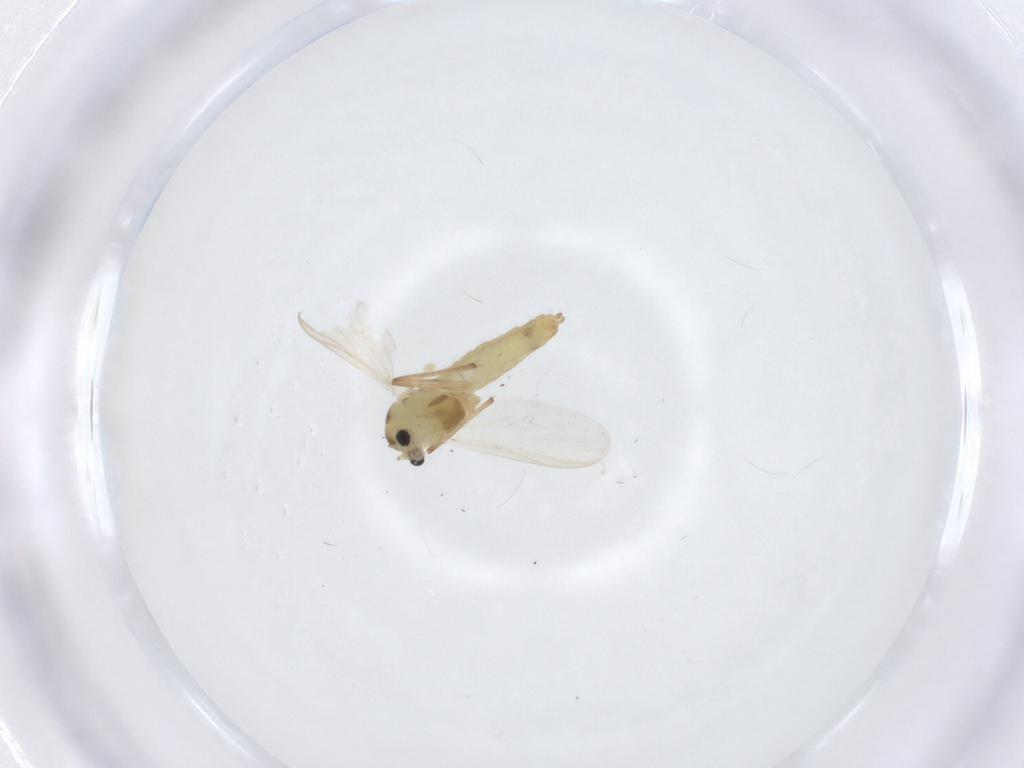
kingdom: Animalia
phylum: Arthropoda
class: Insecta
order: Diptera
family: Chironomidae
